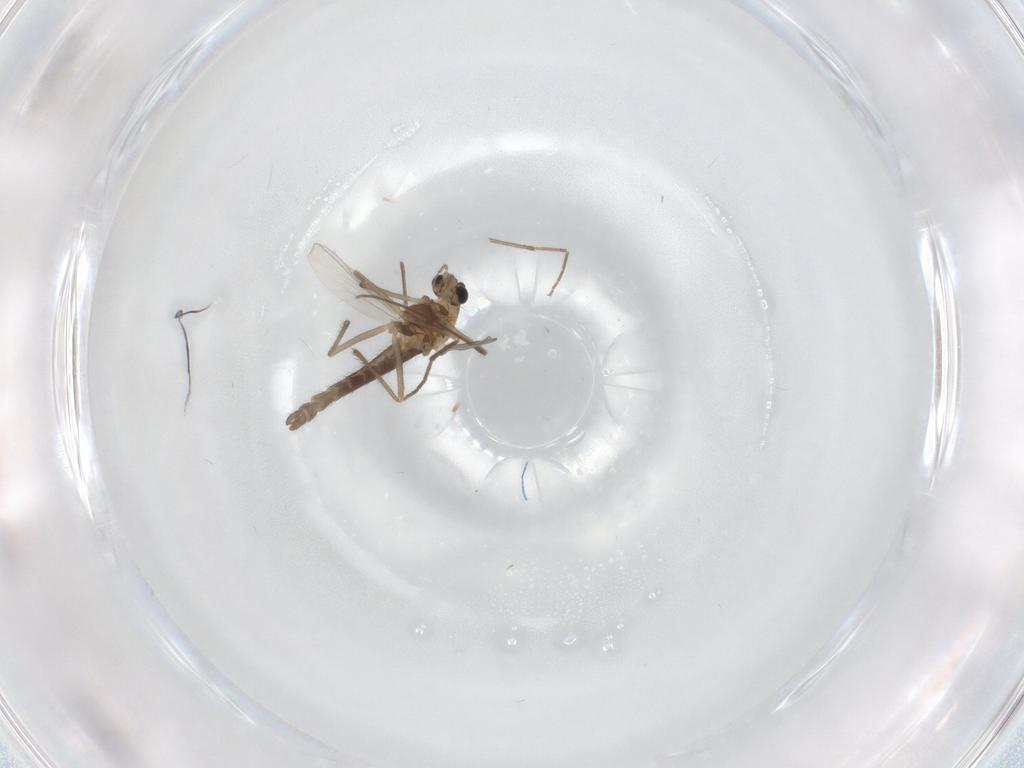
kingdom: Animalia
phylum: Arthropoda
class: Insecta
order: Diptera
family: Chironomidae
